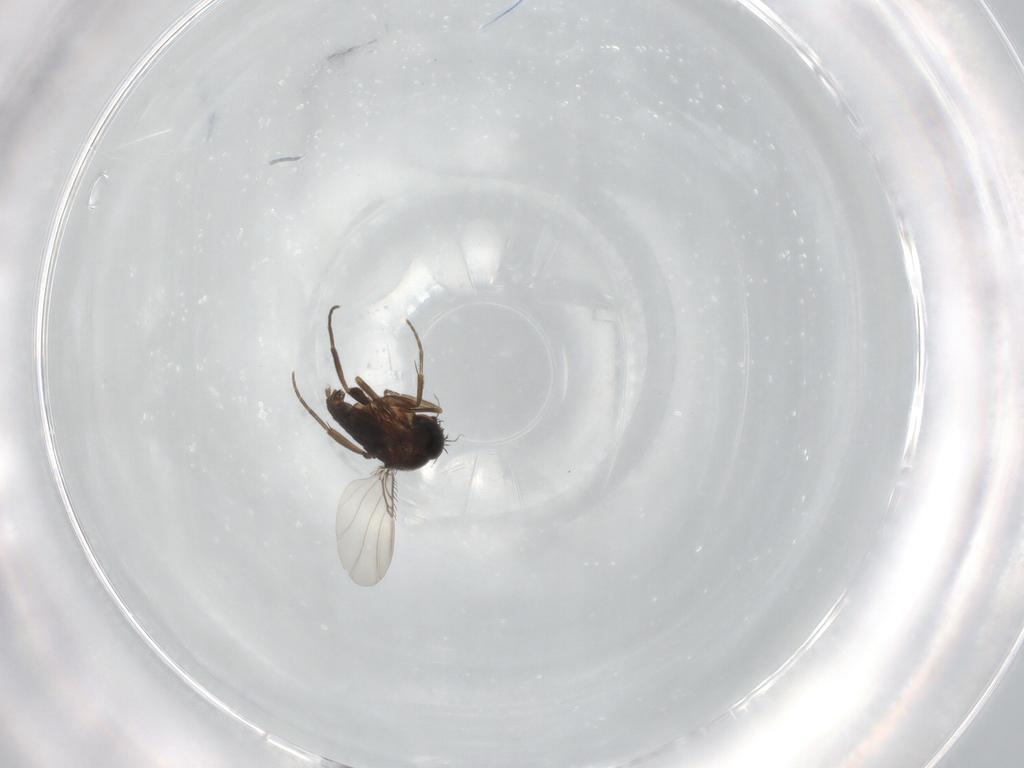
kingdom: Animalia
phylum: Arthropoda
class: Insecta
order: Diptera
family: Phoridae
